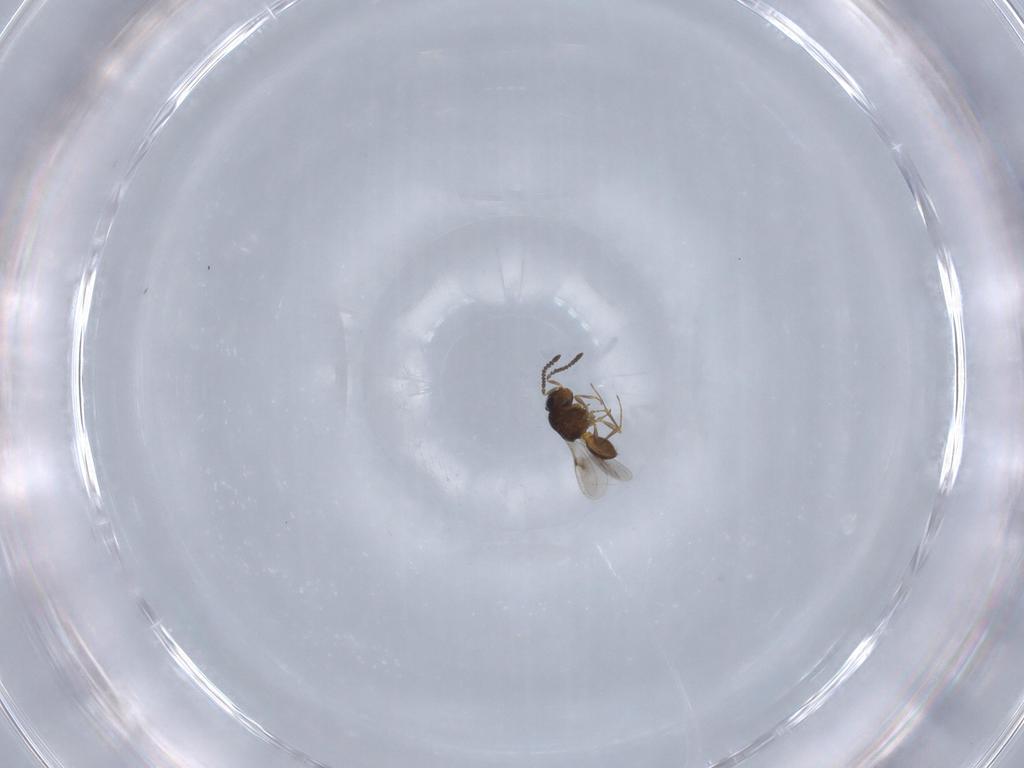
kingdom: Animalia
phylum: Arthropoda
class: Insecta
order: Hymenoptera
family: Scelionidae
